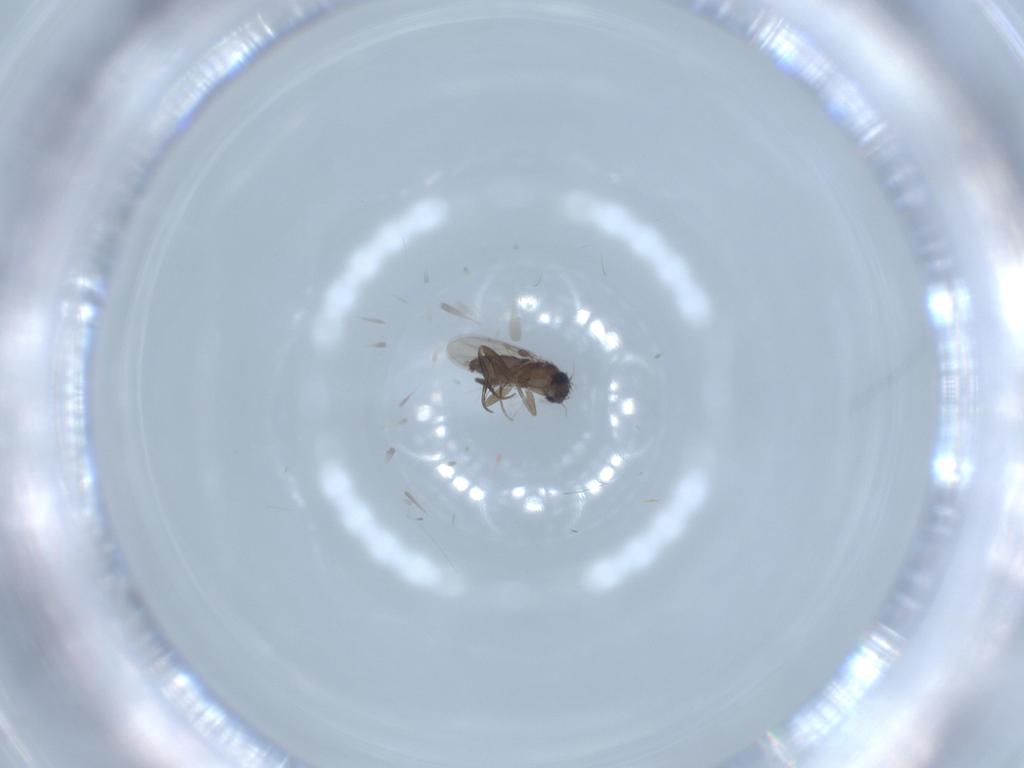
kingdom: Animalia
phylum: Arthropoda
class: Insecta
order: Diptera
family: Phoridae
